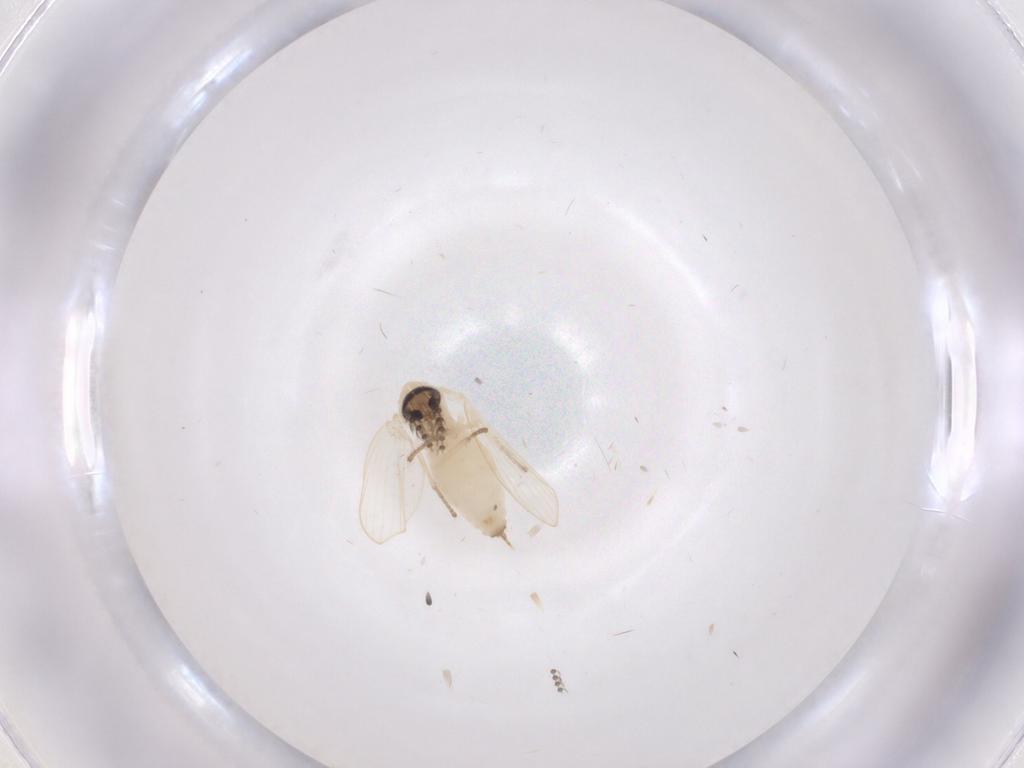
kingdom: Animalia
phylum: Arthropoda
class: Insecta
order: Diptera
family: Psychodidae
